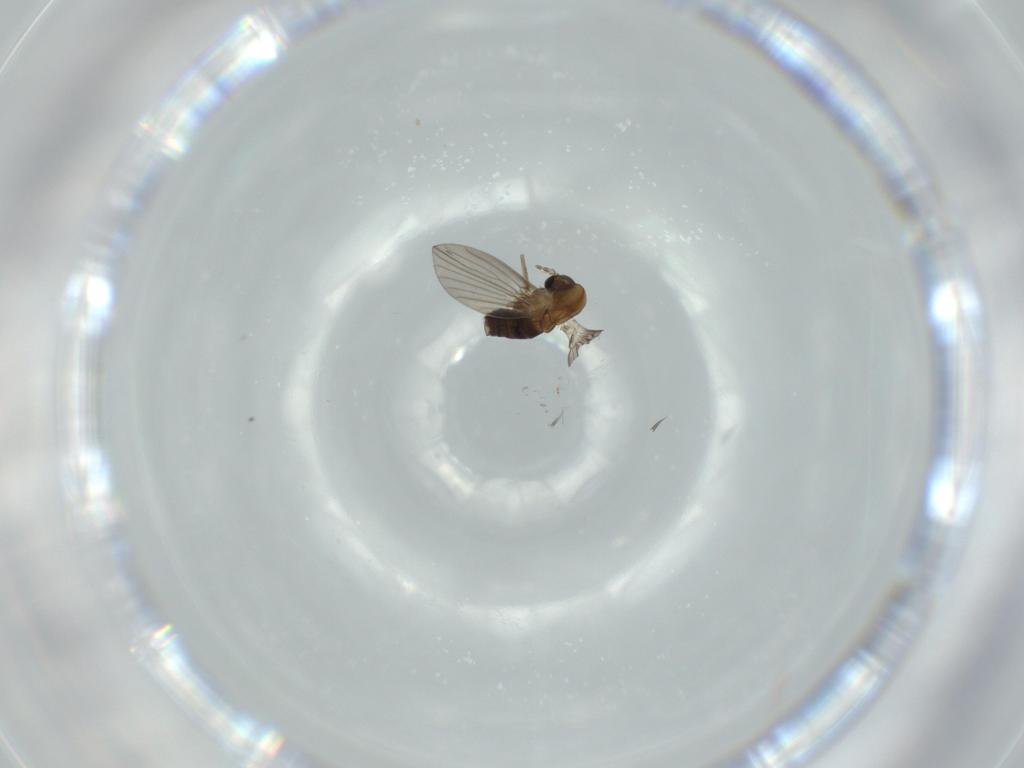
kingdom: Animalia
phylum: Arthropoda
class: Insecta
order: Diptera
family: Psychodidae
